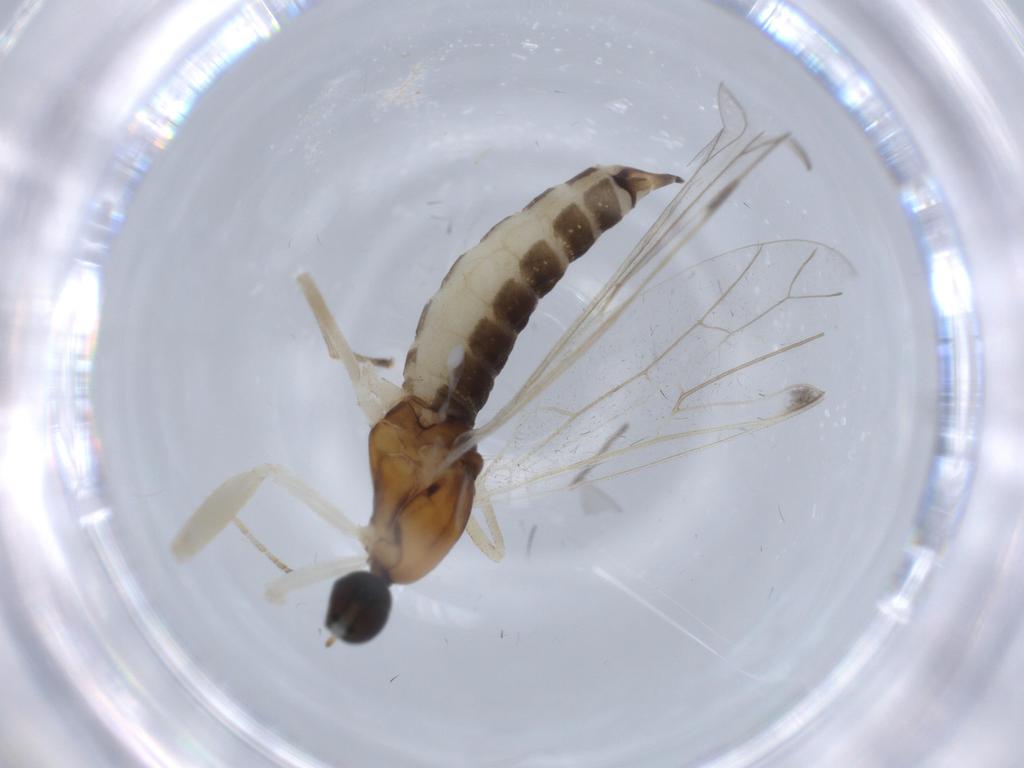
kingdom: Animalia
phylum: Arthropoda
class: Insecta
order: Diptera
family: Empididae
